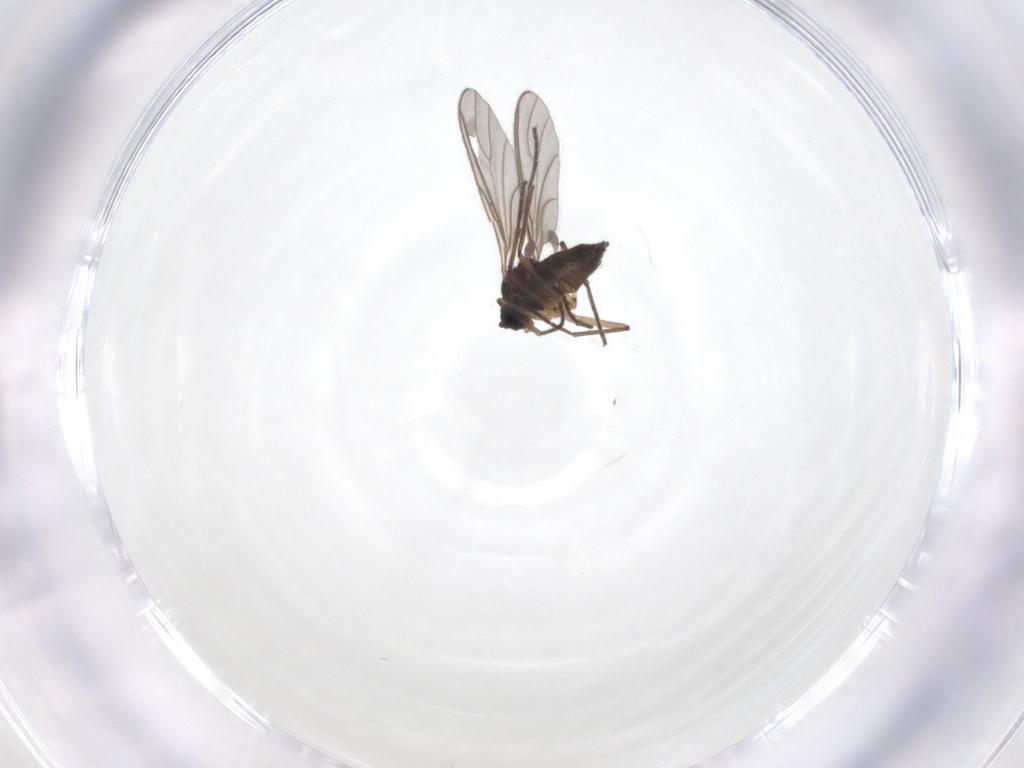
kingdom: Animalia
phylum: Arthropoda
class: Insecta
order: Diptera
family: Sciaridae
